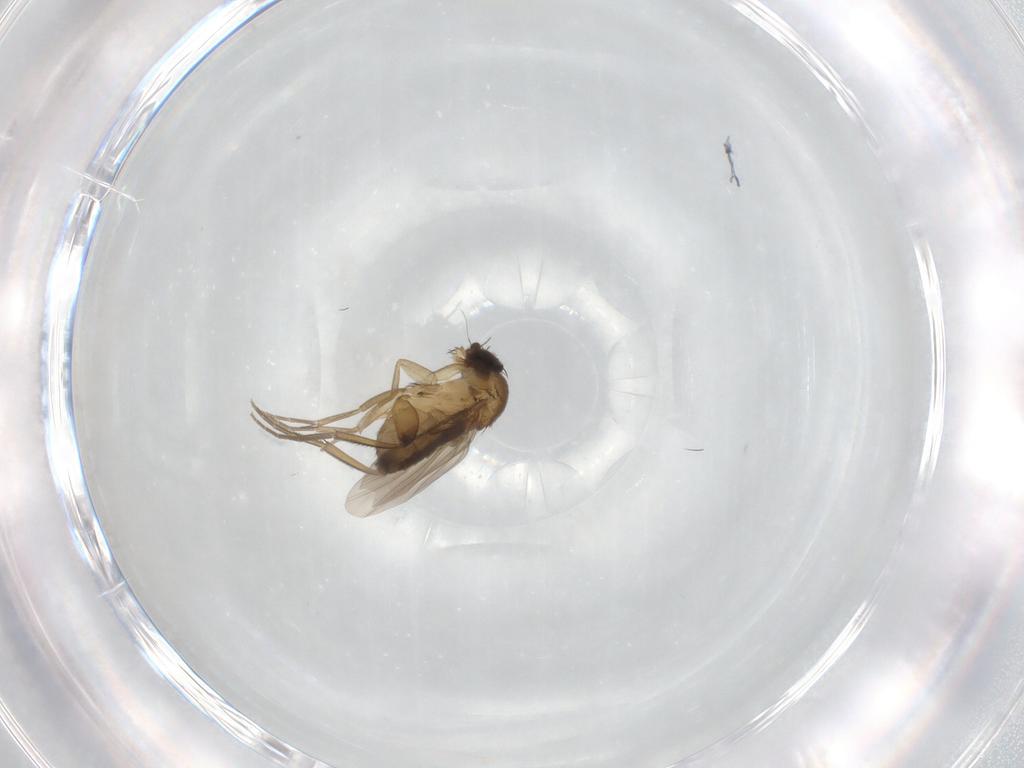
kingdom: Animalia
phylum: Arthropoda
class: Insecta
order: Diptera
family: Phoridae
